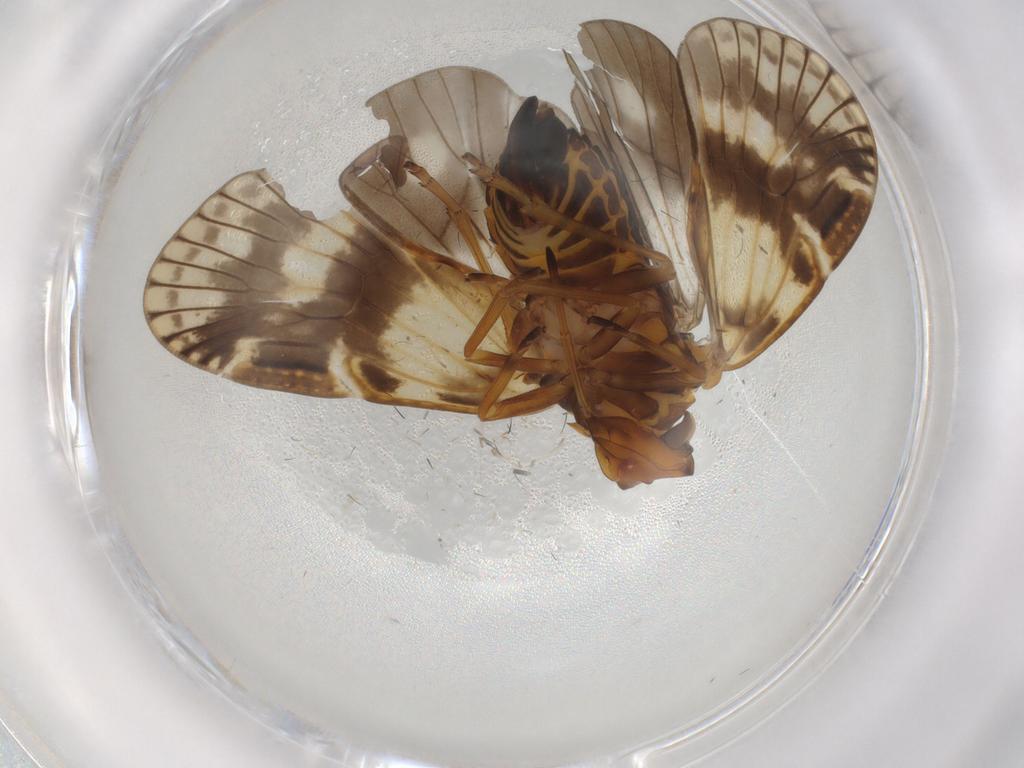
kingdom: Animalia
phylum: Arthropoda
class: Insecta
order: Hemiptera
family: Cixiidae
